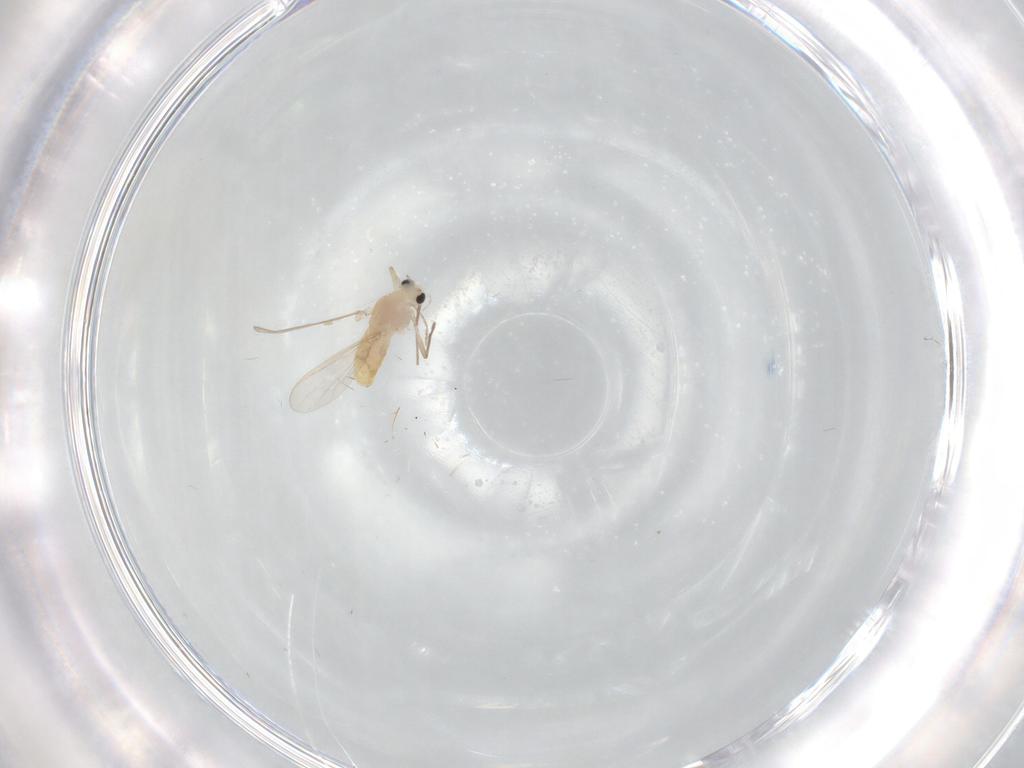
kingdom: Animalia
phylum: Arthropoda
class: Insecta
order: Diptera
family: Chironomidae
